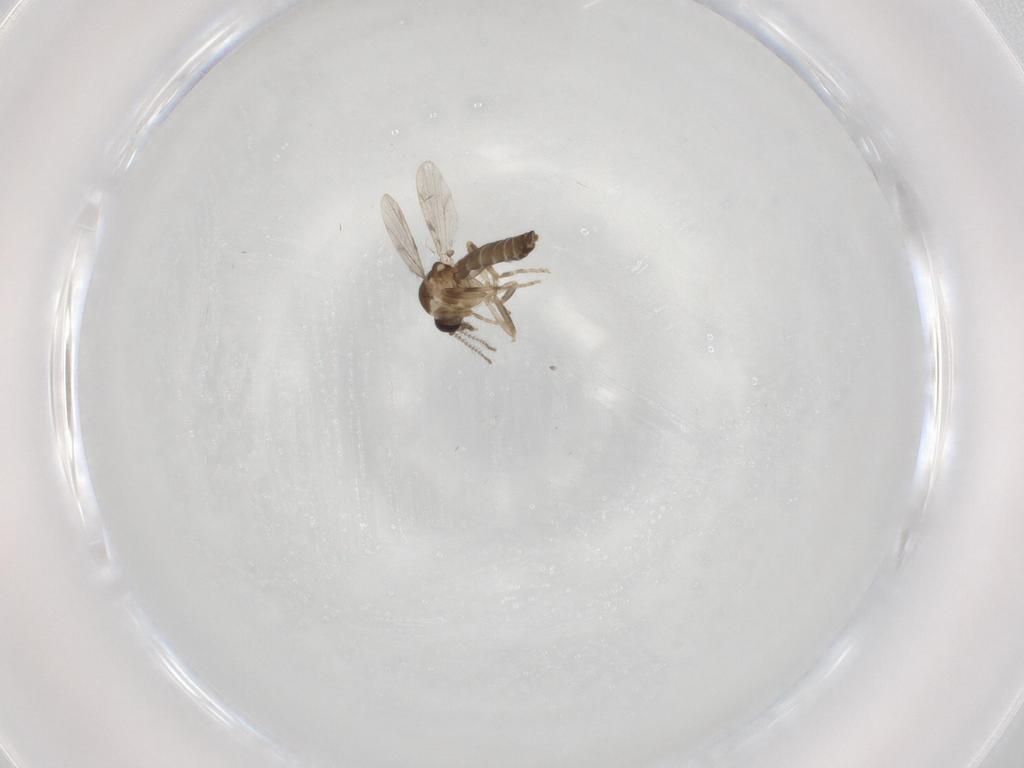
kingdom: Animalia
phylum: Arthropoda
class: Insecta
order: Diptera
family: Ceratopogonidae
